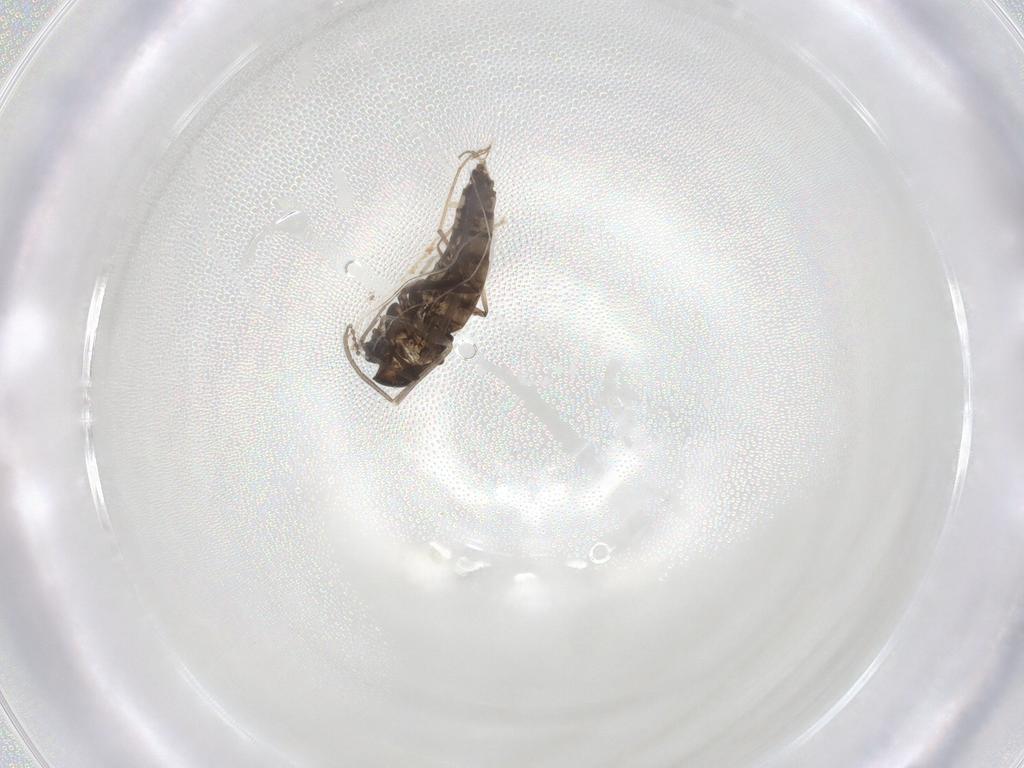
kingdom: Animalia
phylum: Arthropoda
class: Insecta
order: Diptera
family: Chironomidae
